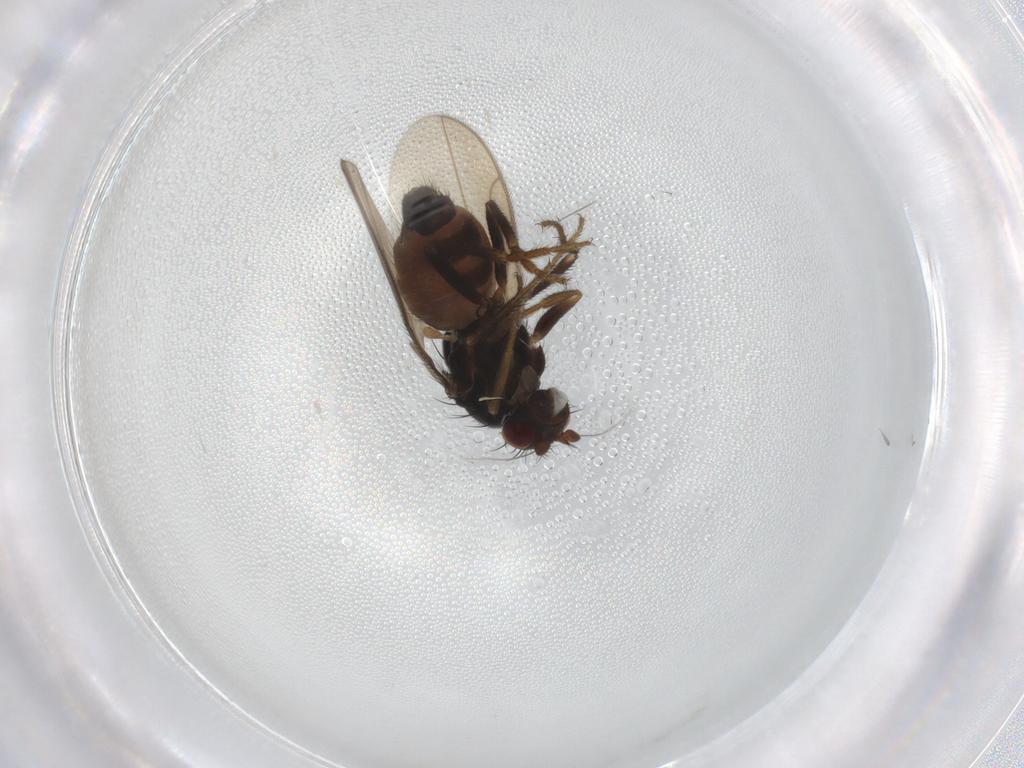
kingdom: Animalia
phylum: Arthropoda
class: Insecta
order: Diptera
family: Sphaeroceridae
